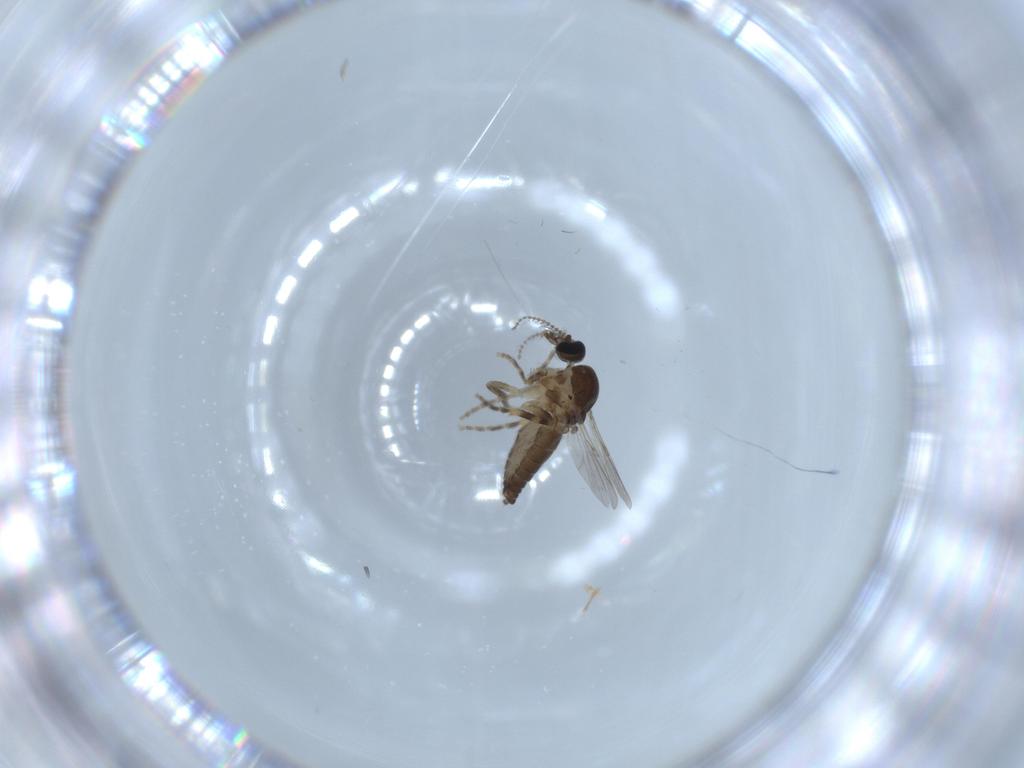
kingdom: Animalia
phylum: Arthropoda
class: Insecta
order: Diptera
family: Ceratopogonidae
